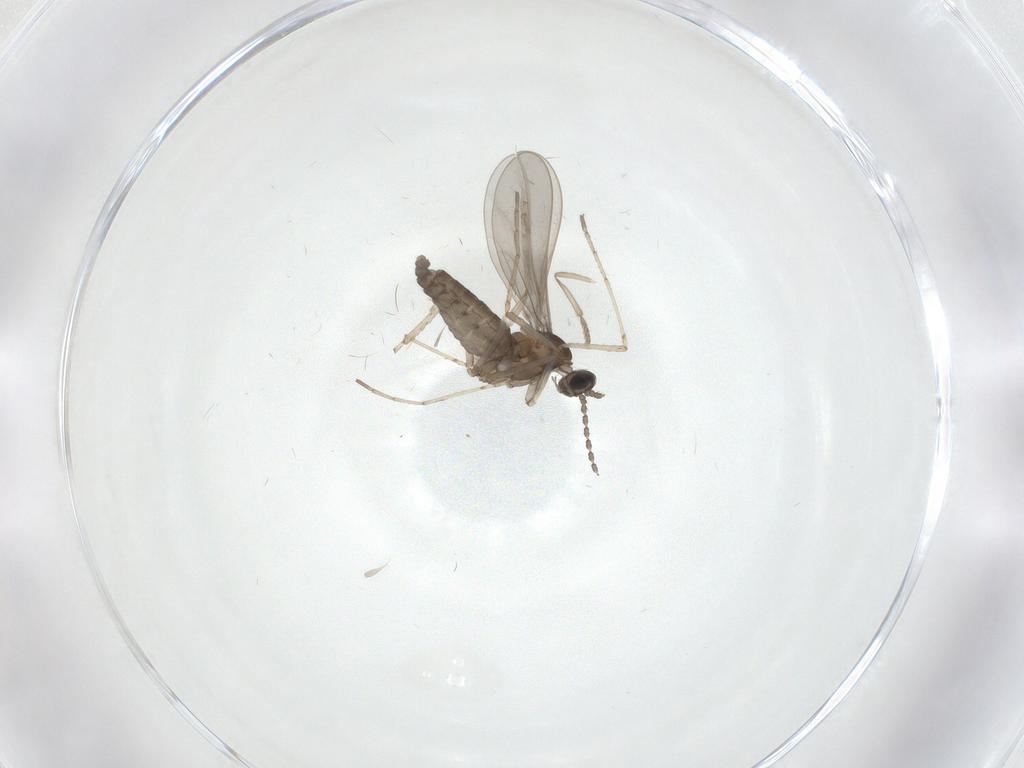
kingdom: Animalia
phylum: Arthropoda
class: Insecta
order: Diptera
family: Cecidomyiidae
